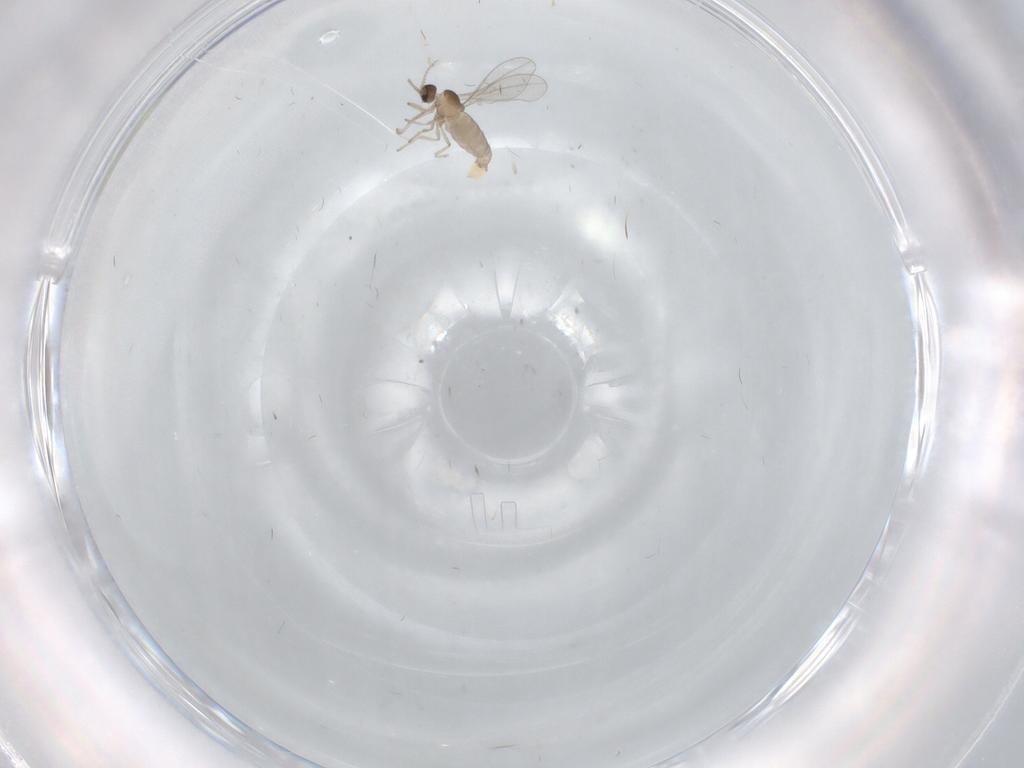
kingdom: Animalia
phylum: Arthropoda
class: Insecta
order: Diptera
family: Cecidomyiidae
